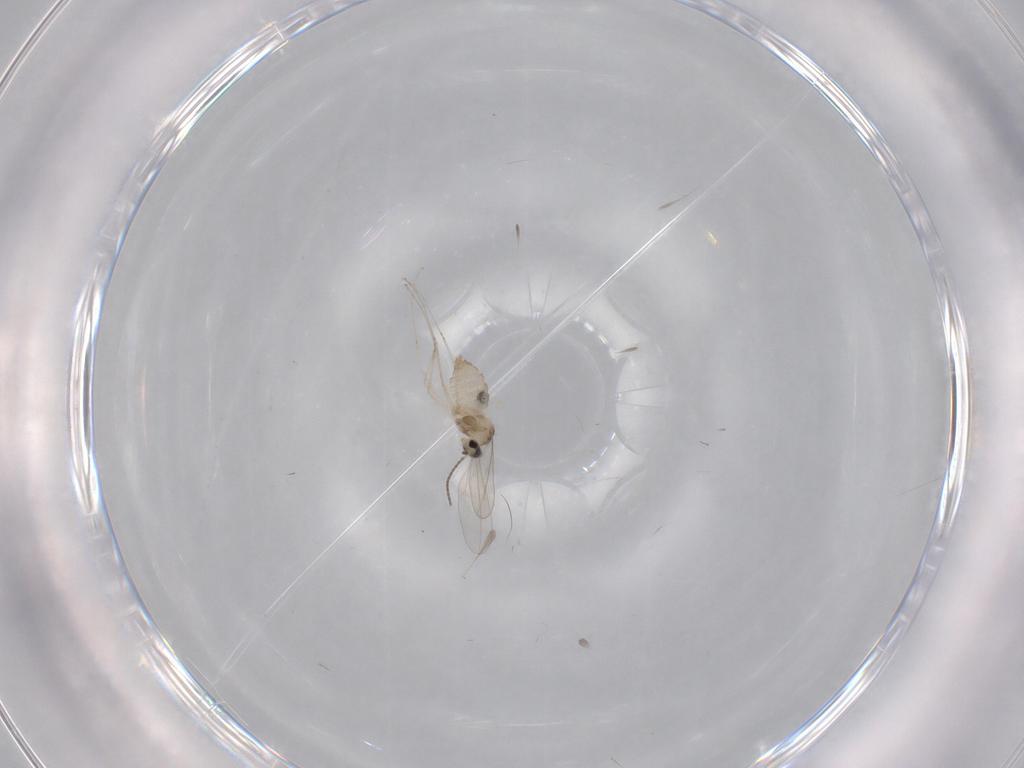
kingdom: Animalia
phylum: Arthropoda
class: Insecta
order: Diptera
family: Cecidomyiidae
